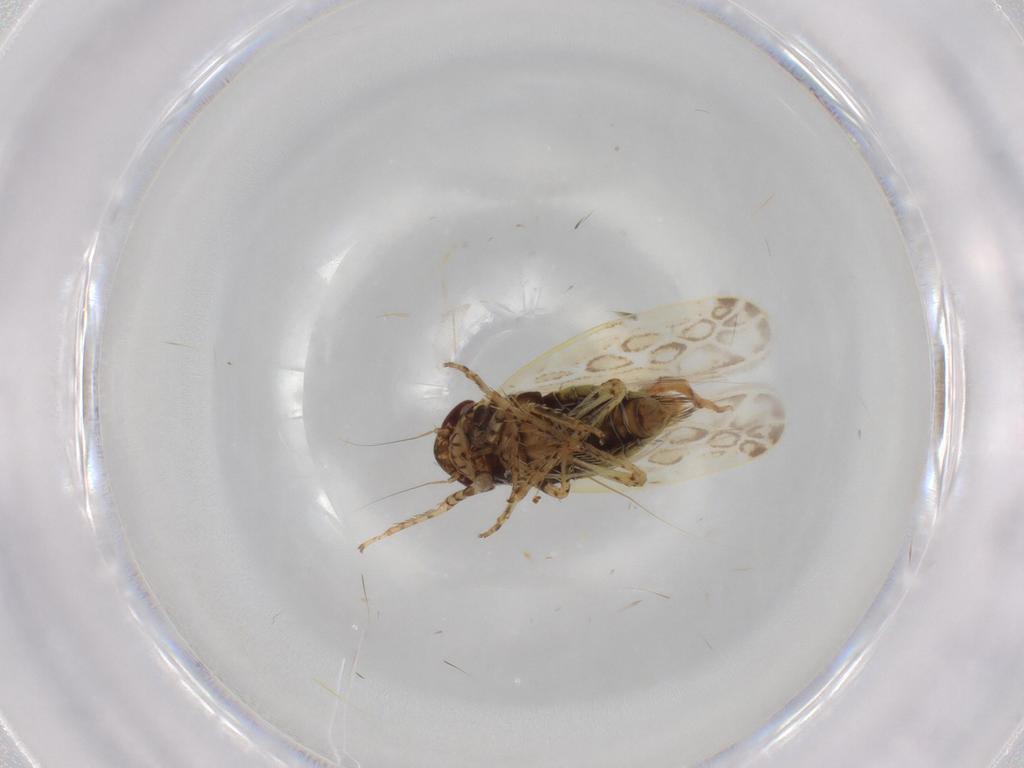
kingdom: Animalia
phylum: Arthropoda
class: Insecta
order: Hemiptera
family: Cicadellidae
